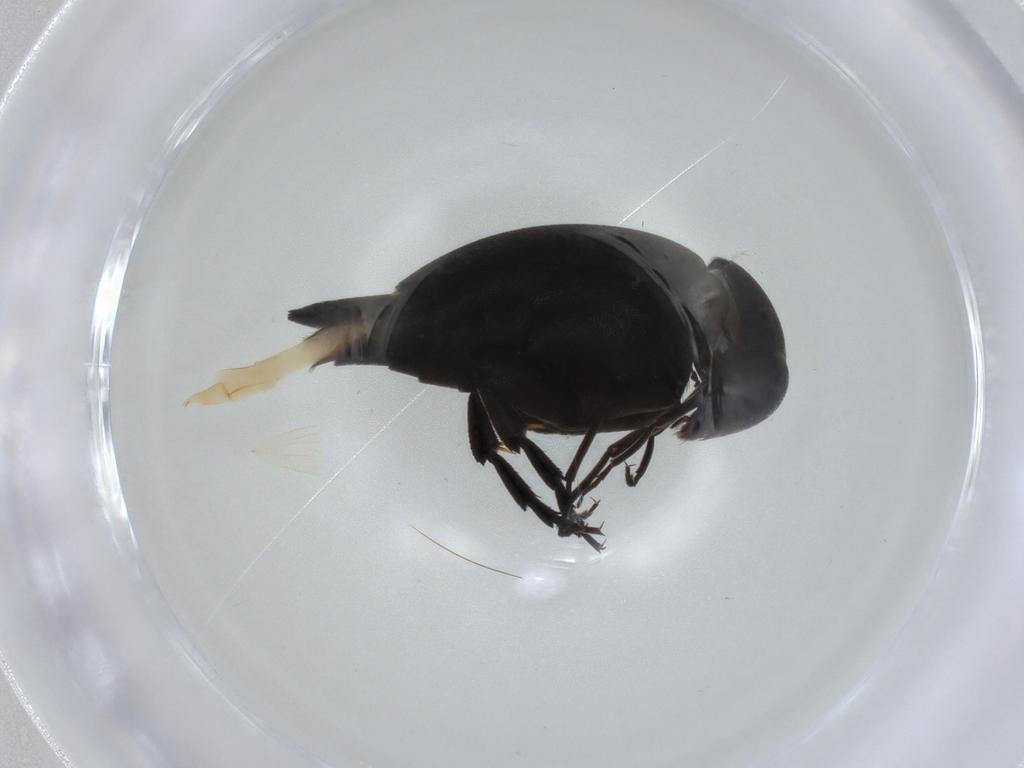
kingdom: Animalia
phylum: Arthropoda
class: Insecta
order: Coleoptera
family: Mordellidae
